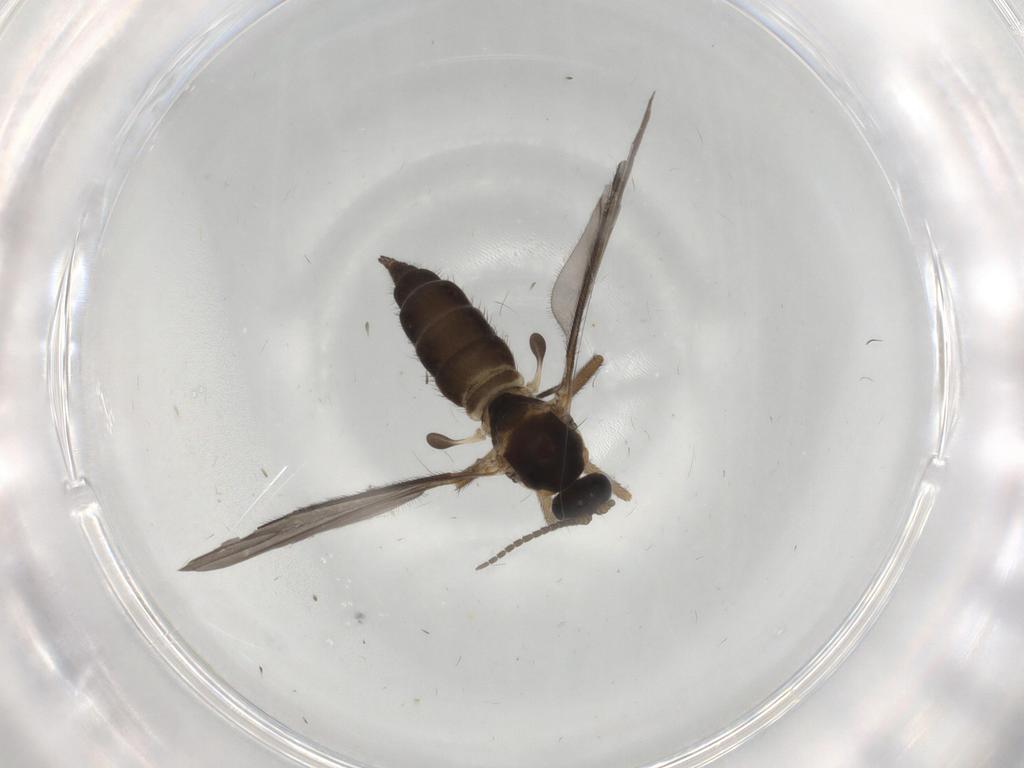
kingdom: Animalia
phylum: Arthropoda
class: Insecta
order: Diptera
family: Sciaridae
